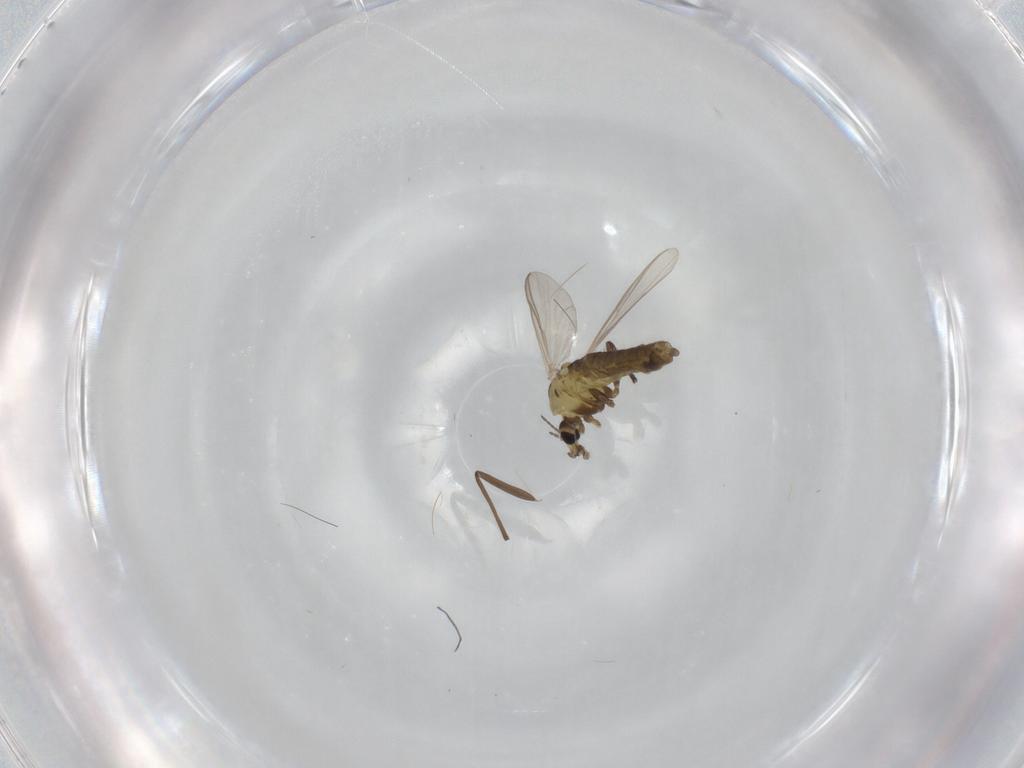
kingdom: Animalia
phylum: Arthropoda
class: Insecta
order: Diptera
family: Chironomidae
